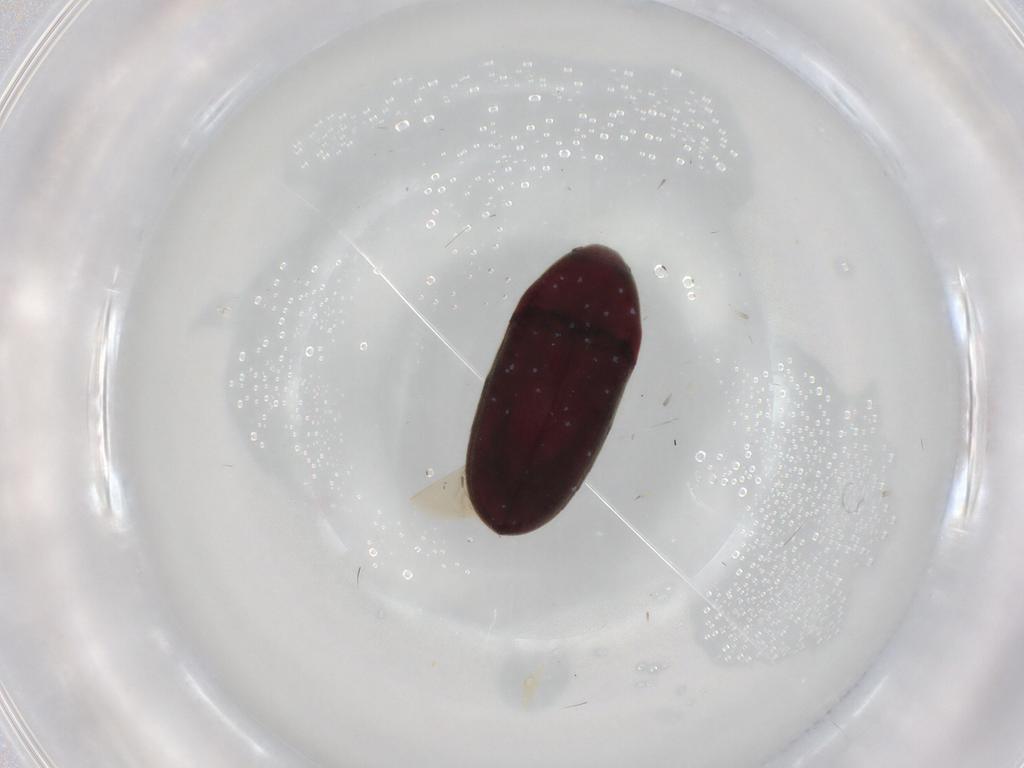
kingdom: Animalia
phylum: Arthropoda
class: Insecta
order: Coleoptera
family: Throscidae
